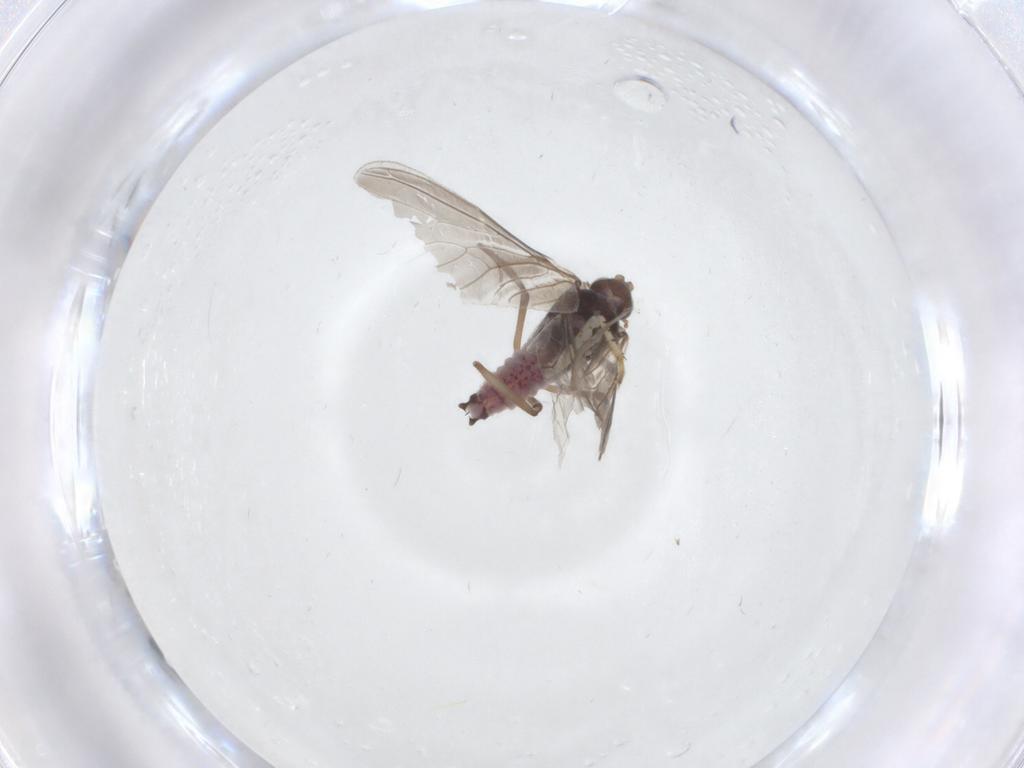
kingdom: Animalia
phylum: Arthropoda
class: Insecta
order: Neuroptera
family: Coniopterygidae
